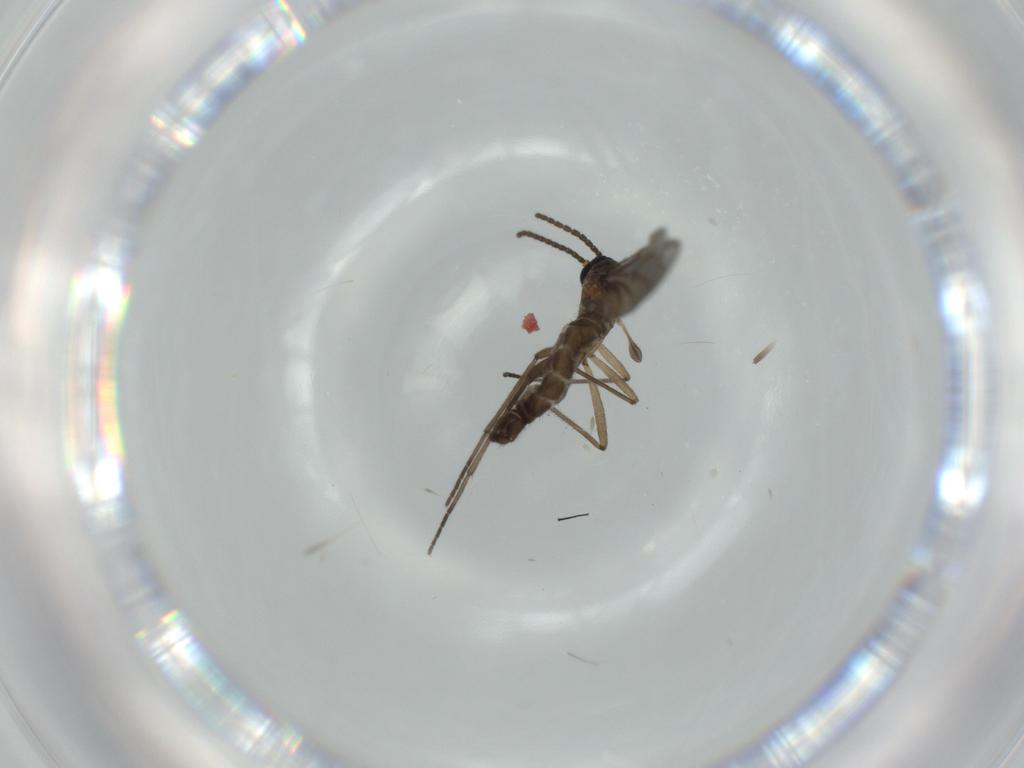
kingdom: Animalia
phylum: Arthropoda
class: Insecta
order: Diptera
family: Sciaridae
